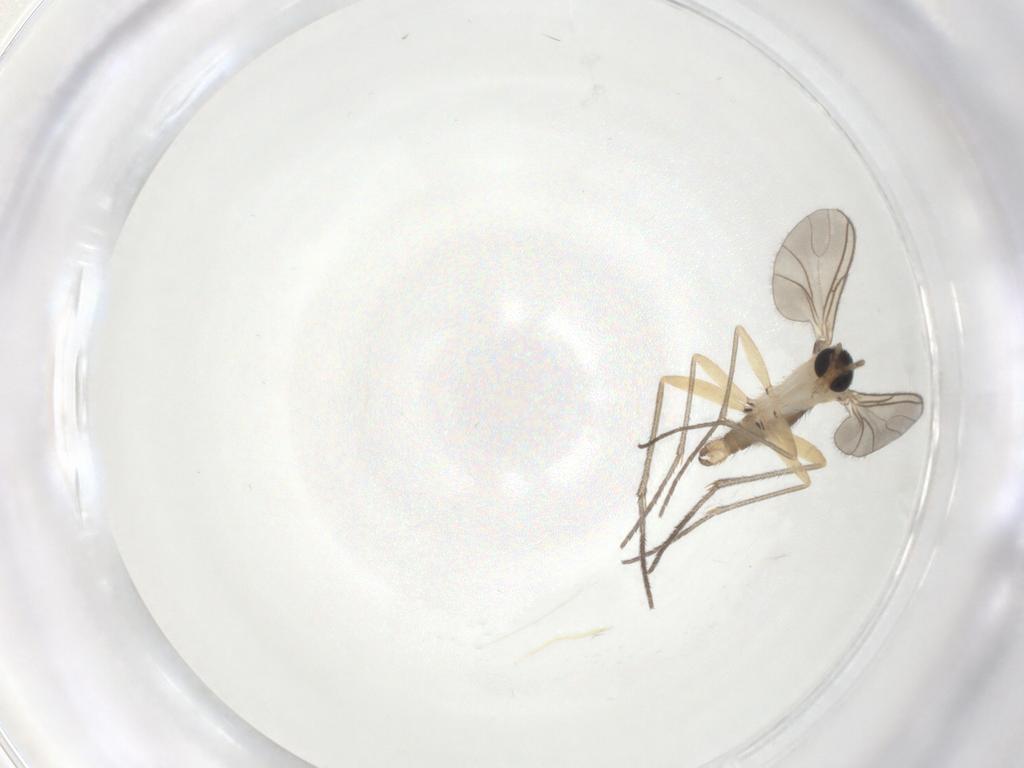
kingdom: Animalia
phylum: Arthropoda
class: Insecta
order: Diptera
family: Sciaridae
